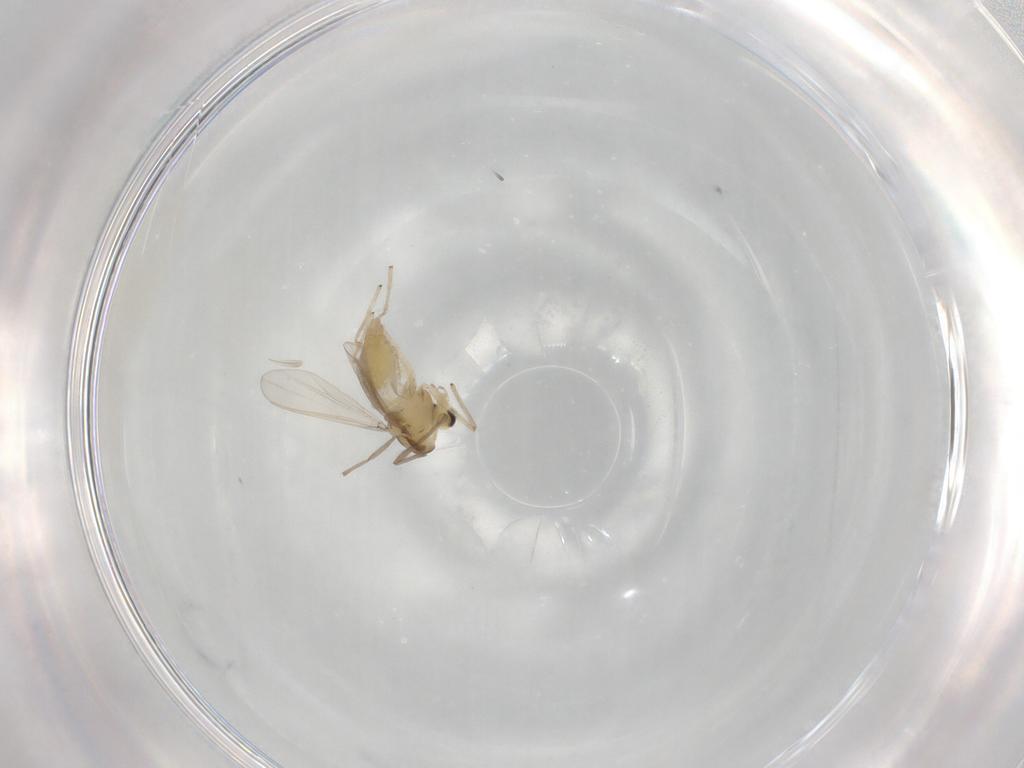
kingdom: Animalia
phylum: Arthropoda
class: Insecta
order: Diptera
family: Chironomidae
